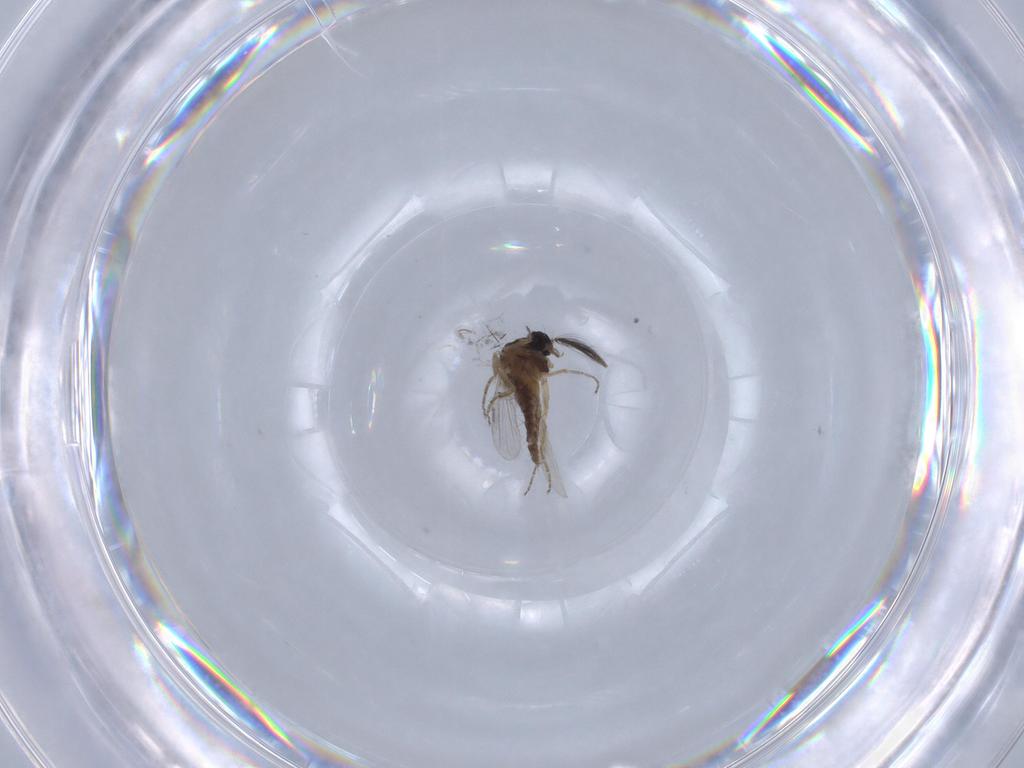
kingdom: Animalia
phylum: Arthropoda
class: Insecta
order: Diptera
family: Ceratopogonidae
